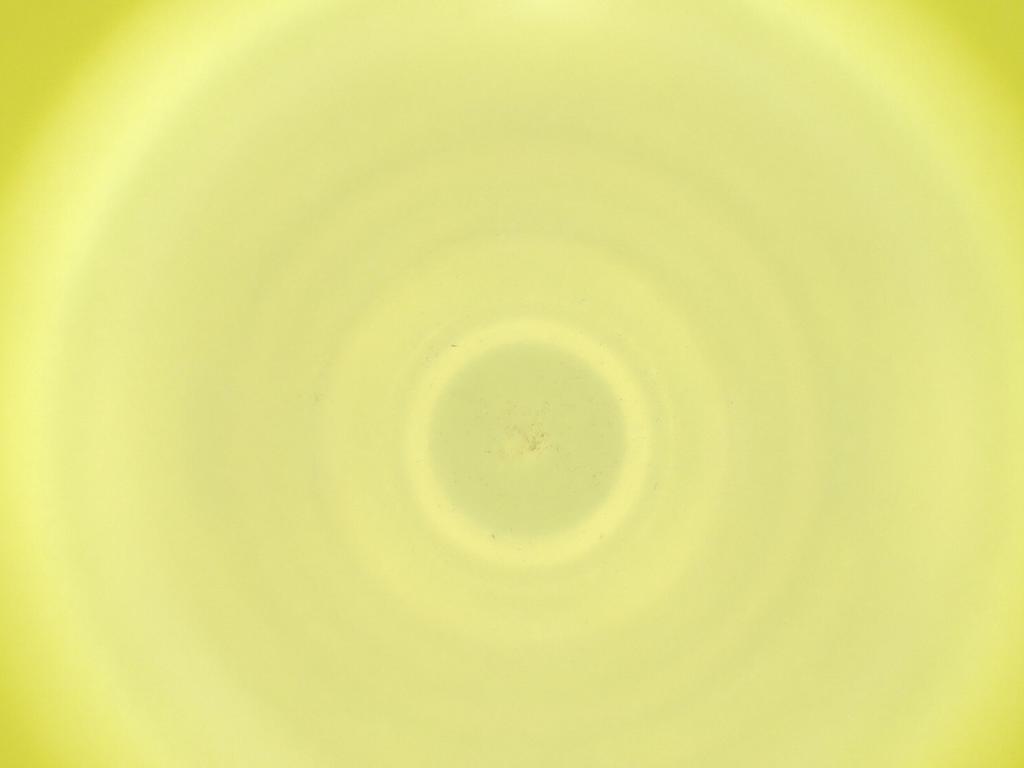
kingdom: Animalia
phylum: Arthropoda
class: Insecta
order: Diptera
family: Cecidomyiidae
